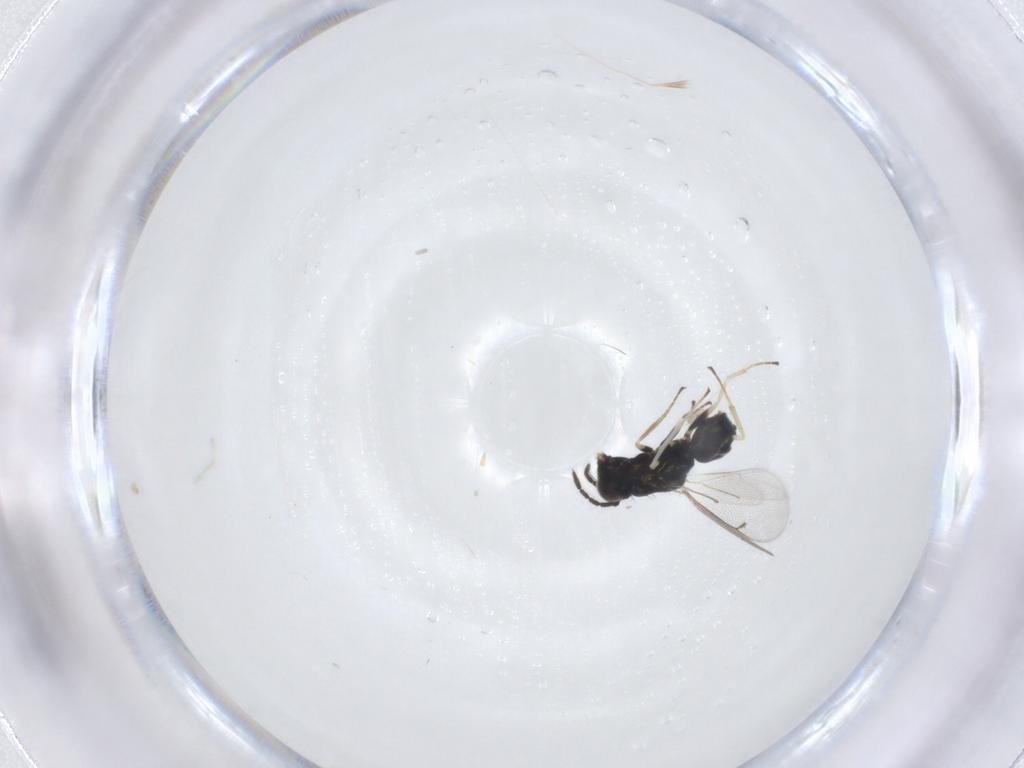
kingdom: Animalia
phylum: Arthropoda
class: Insecta
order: Hymenoptera
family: Eulophidae
